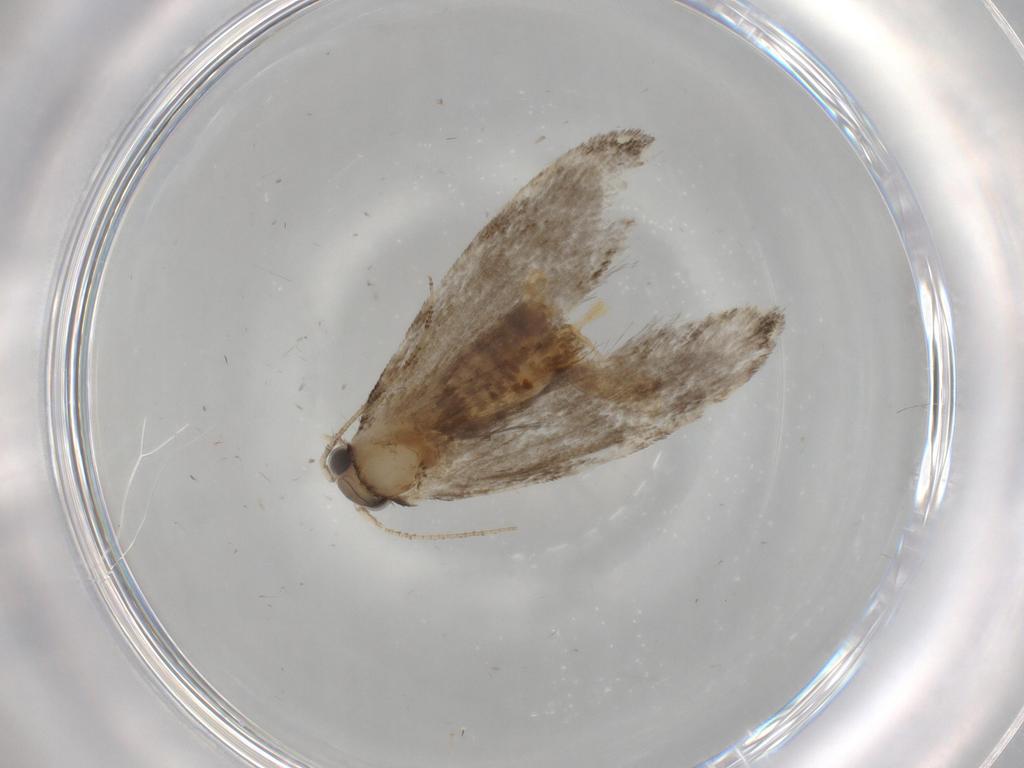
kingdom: Animalia
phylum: Arthropoda
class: Insecta
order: Lepidoptera
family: Tineidae
